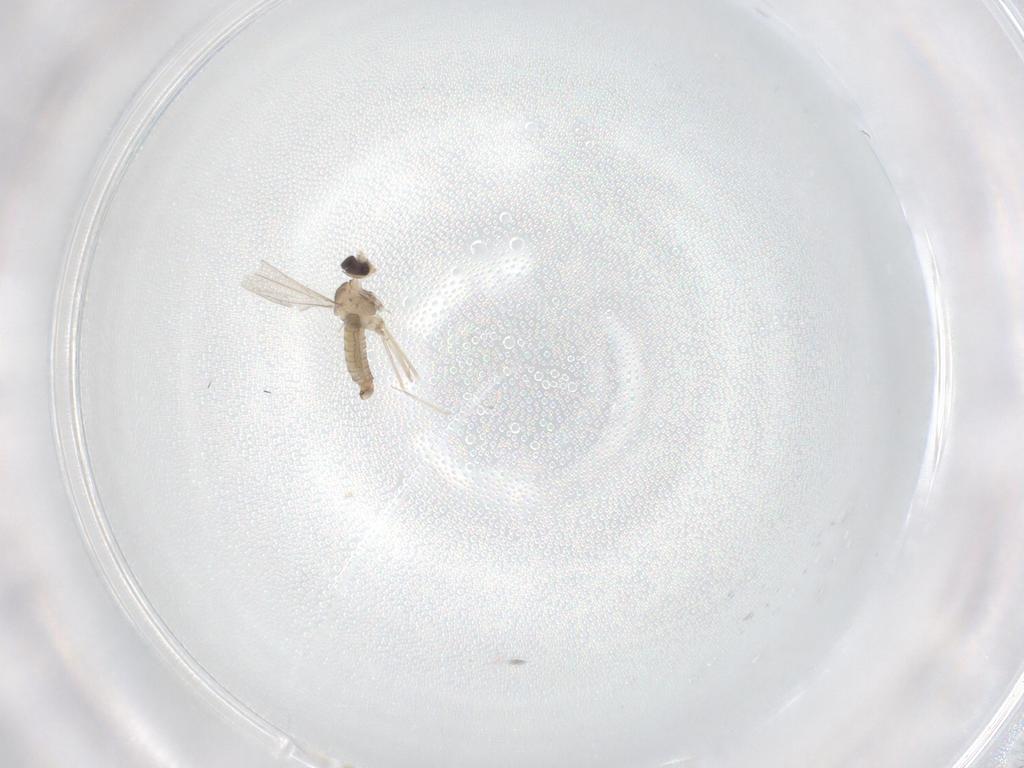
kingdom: Animalia
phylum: Arthropoda
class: Insecta
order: Diptera
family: Cecidomyiidae
